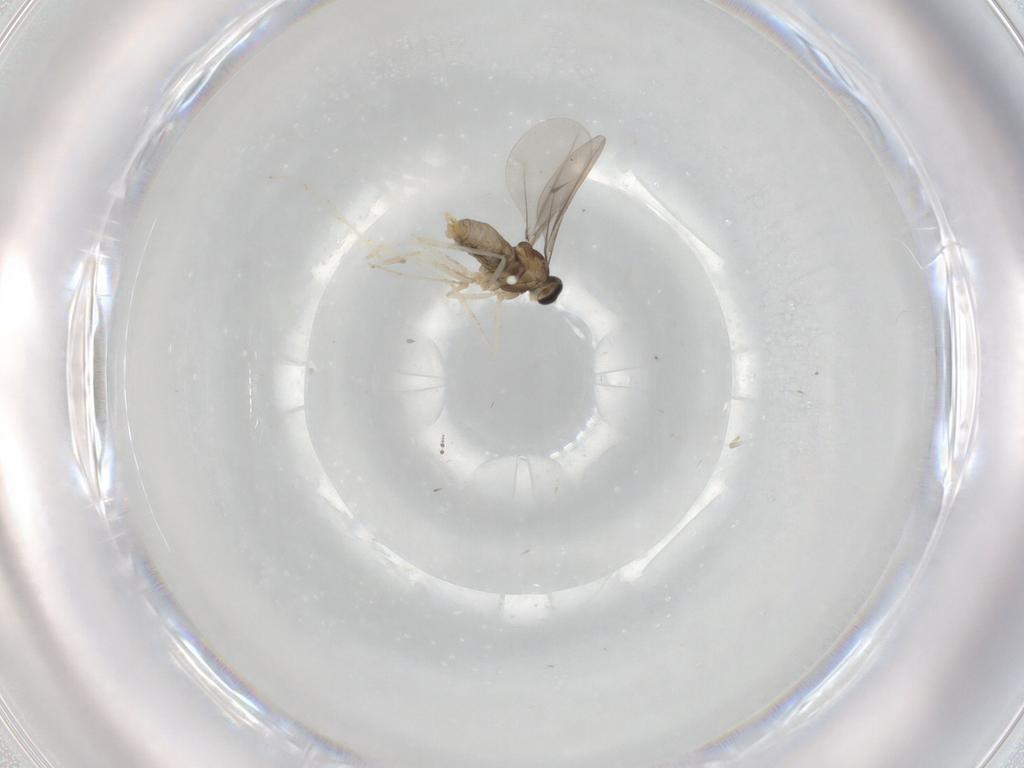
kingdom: Animalia
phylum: Arthropoda
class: Insecta
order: Diptera
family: Cecidomyiidae
